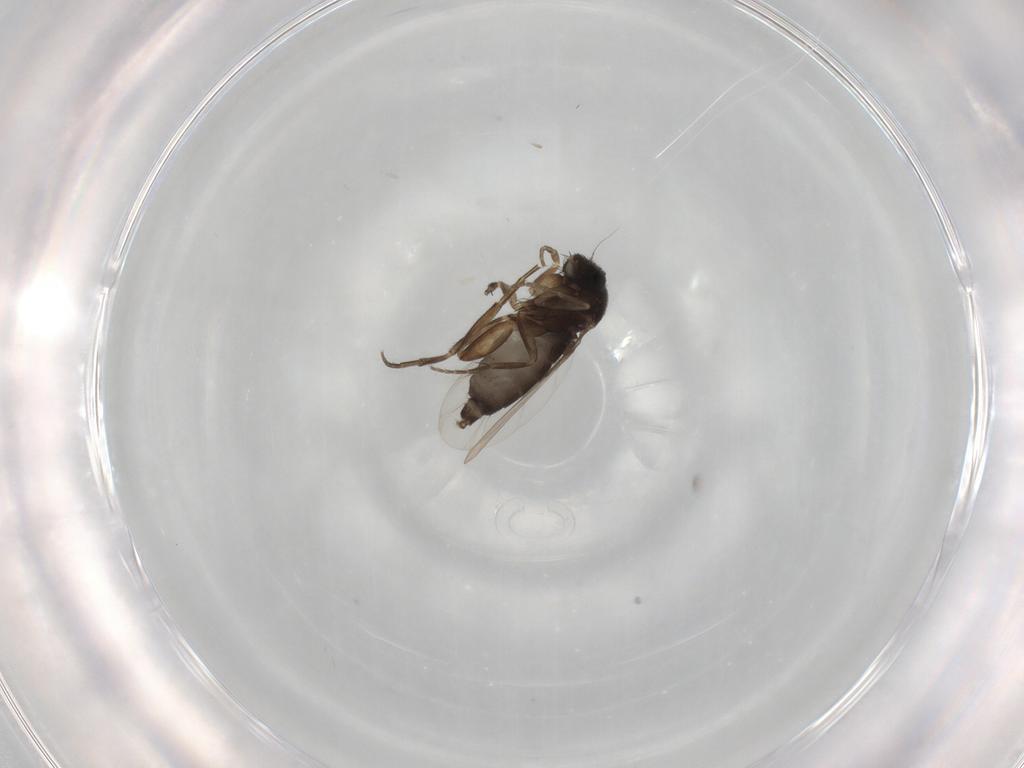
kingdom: Animalia
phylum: Arthropoda
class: Insecta
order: Diptera
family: Phoridae
